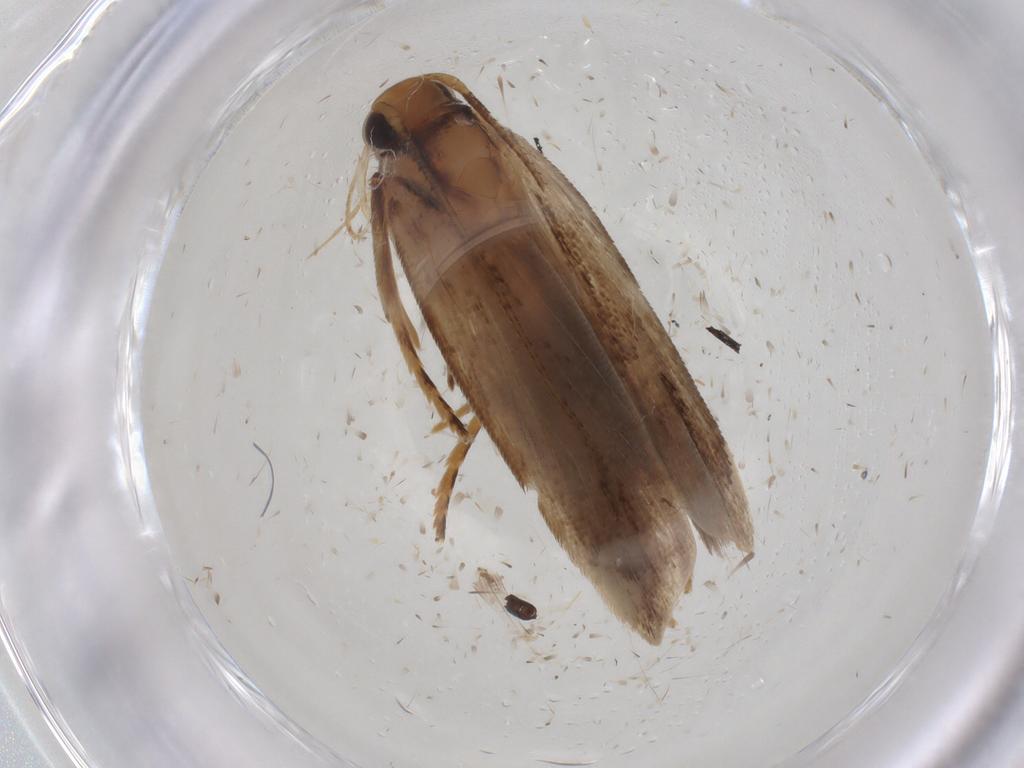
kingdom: Animalia
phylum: Arthropoda
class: Insecta
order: Lepidoptera
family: Gelechiidae
